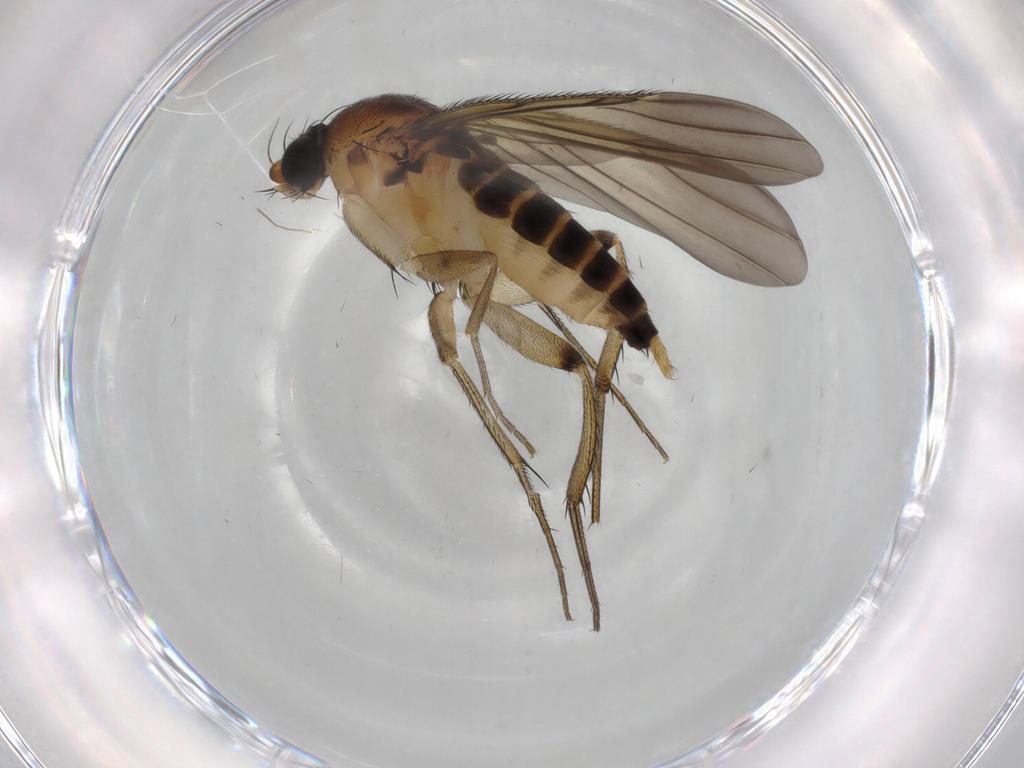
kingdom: Animalia
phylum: Arthropoda
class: Insecta
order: Diptera
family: Phoridae
